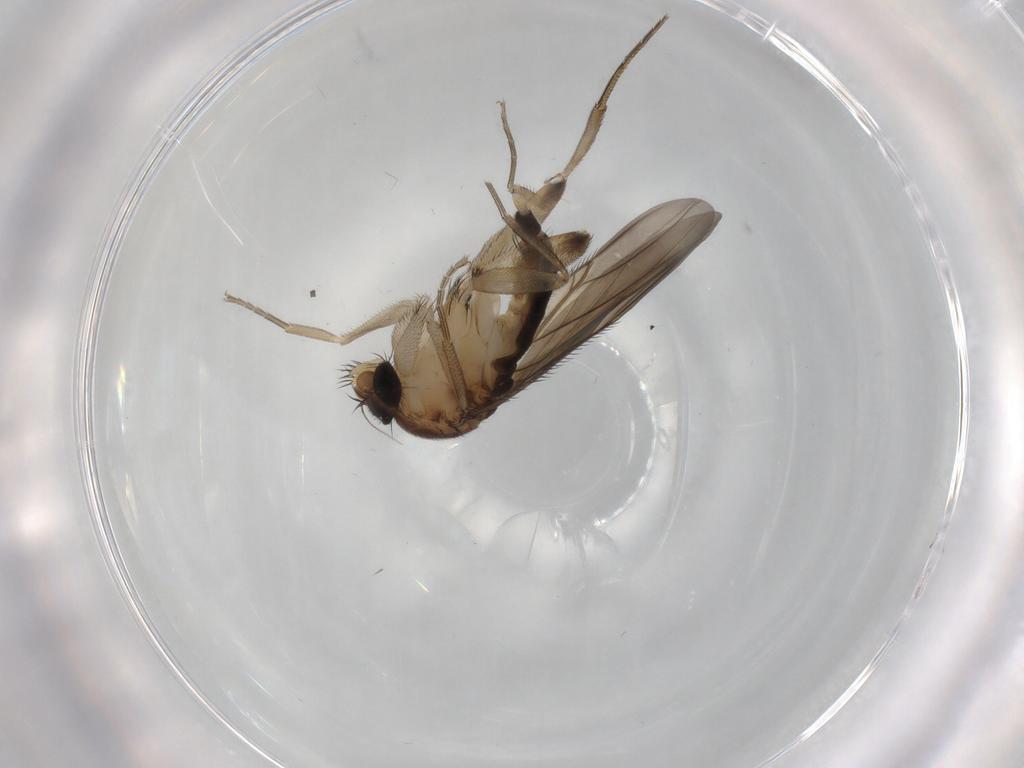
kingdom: Animalia
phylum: Arthropoda
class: Insecta
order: Diptera
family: Phoridae
